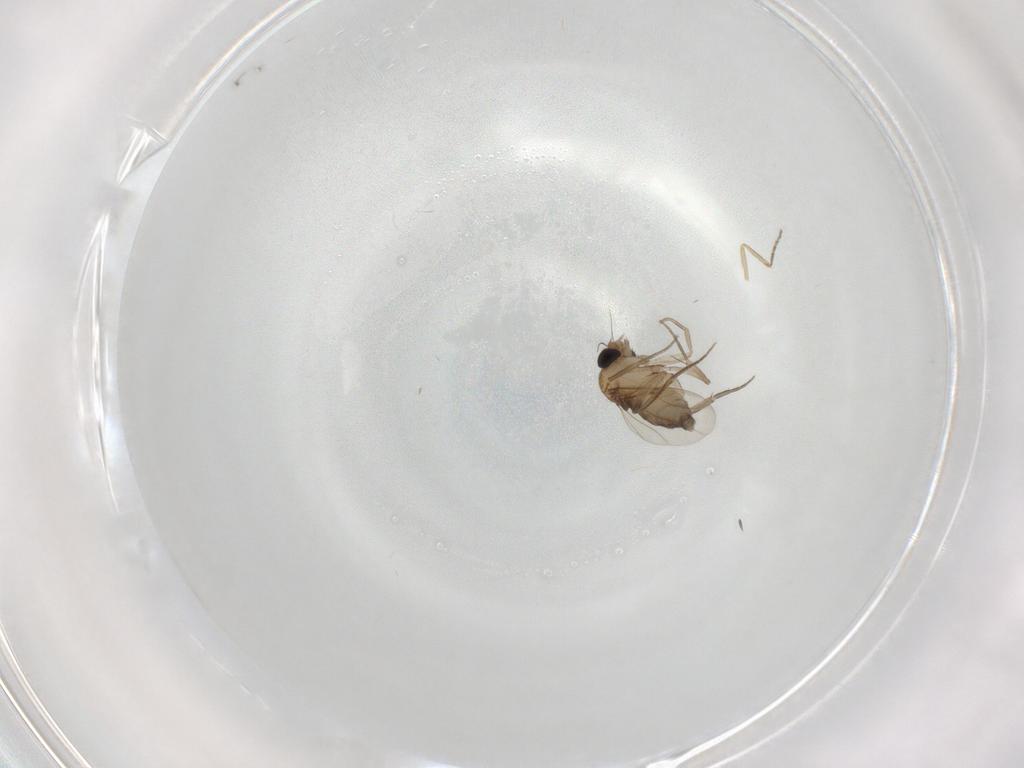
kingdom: Animalia
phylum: Arthropoda
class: Insecta
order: Diptera
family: Phoridae
